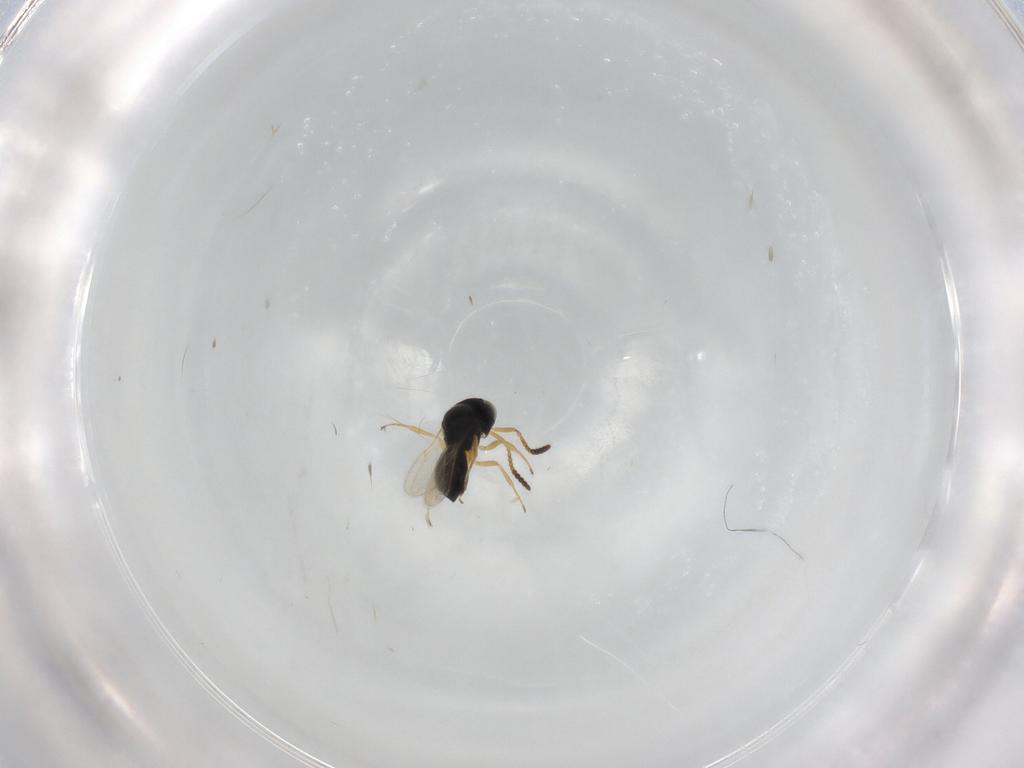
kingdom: Animalia
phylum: Arthropoda
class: Insecta
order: Hymenoptera
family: Scelionidae
